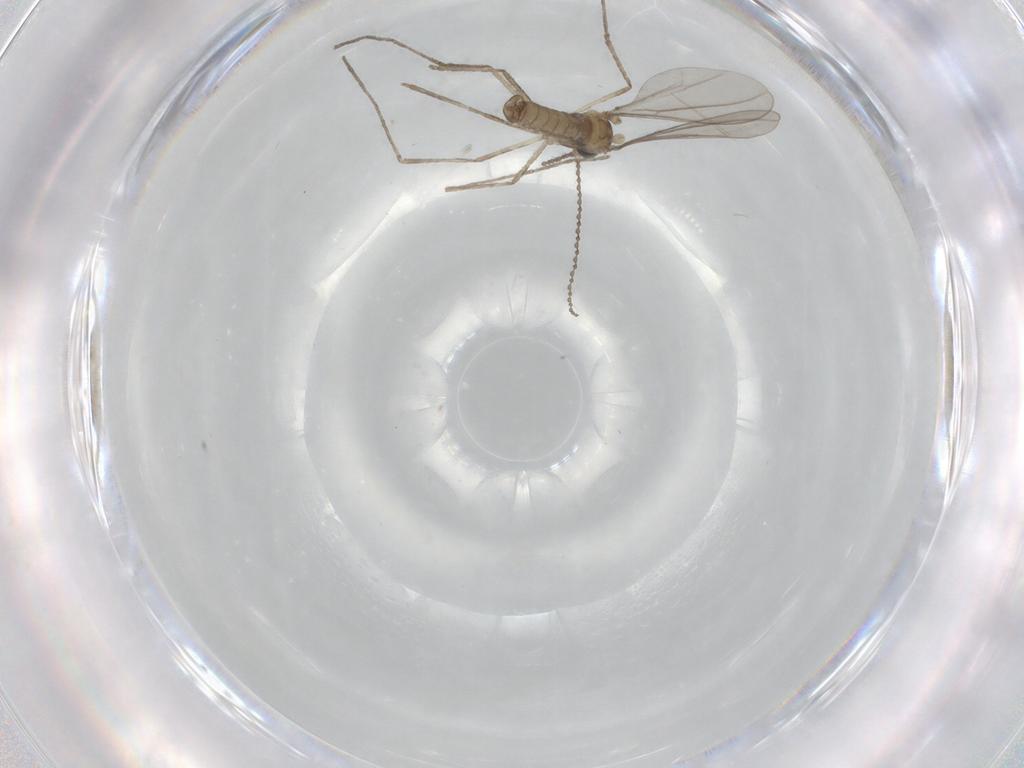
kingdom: Animalia
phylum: Arthropoda
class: Insecta
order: Diptera
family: Cecidomyiidae
